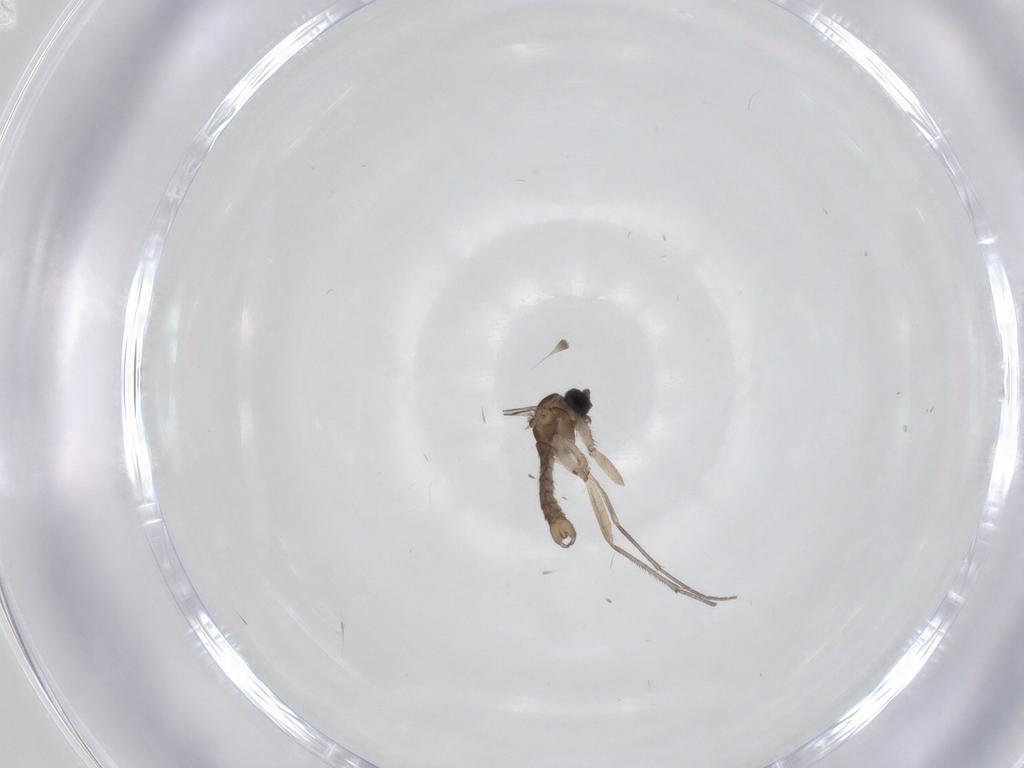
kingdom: Animalia
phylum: Arthropoda
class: Insecta
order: Diptera
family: Sciaridae
